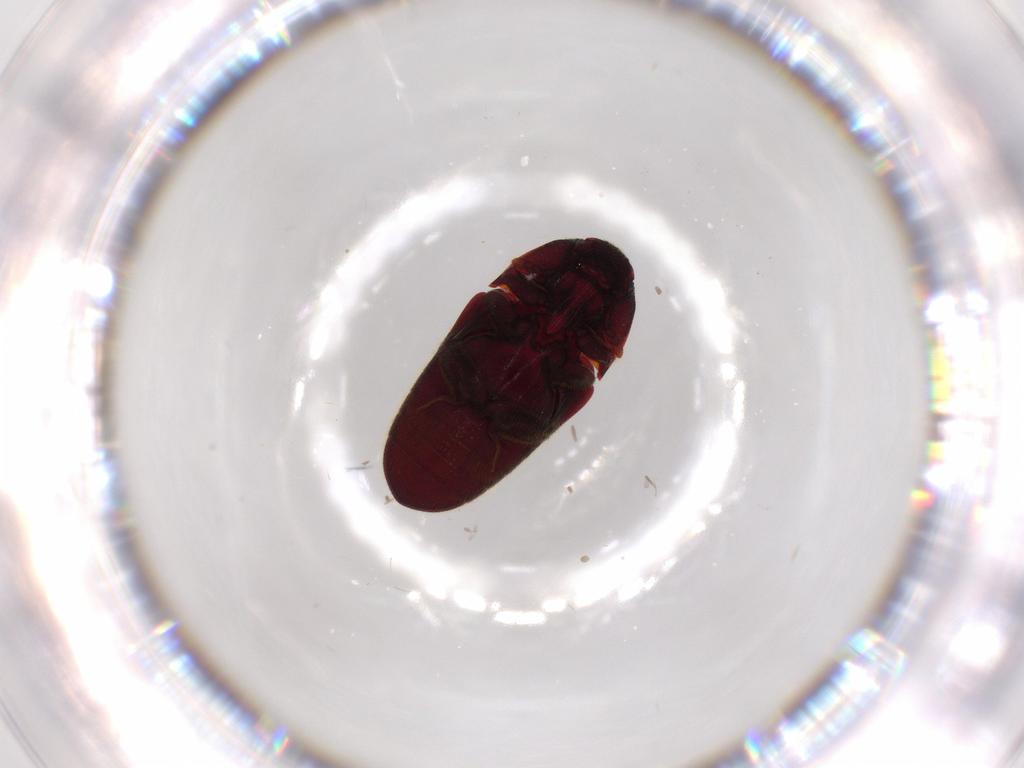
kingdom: Animalia
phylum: Arthropoda
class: Insecta
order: Coleoptera
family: Throscidae
